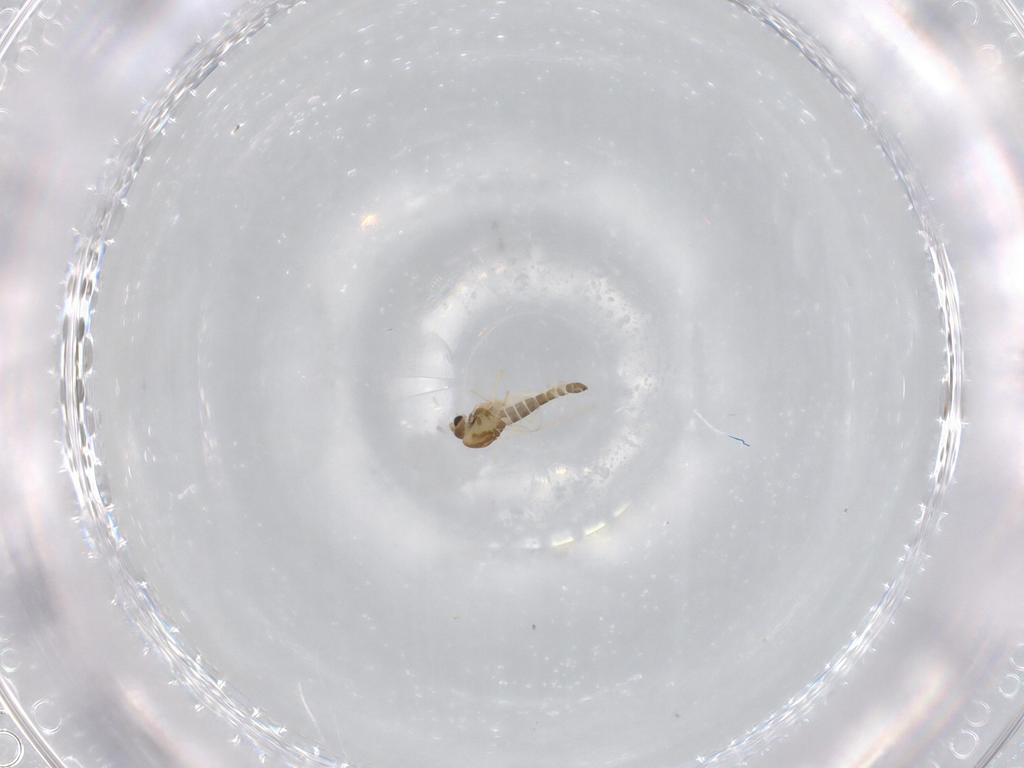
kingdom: Animalia
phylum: Arthropoda
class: Insecta
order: Diptera
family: Ceratopogonidae
